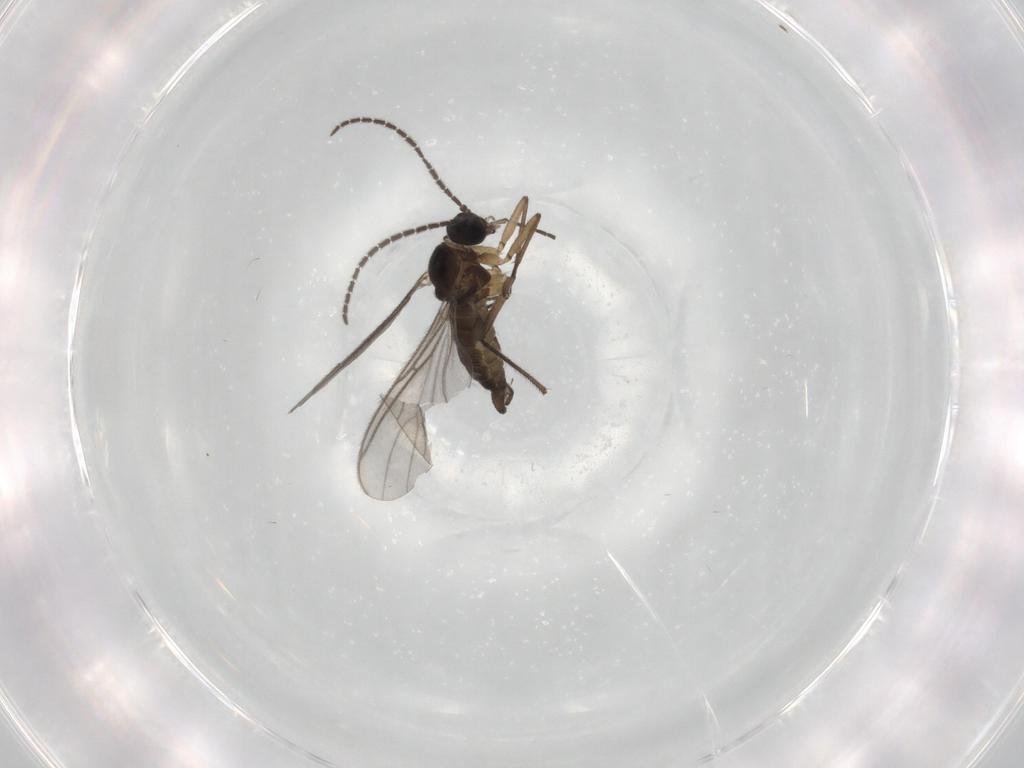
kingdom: Animalia
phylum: Arthropoda
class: Insecta
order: Diptera
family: Sciaridae
